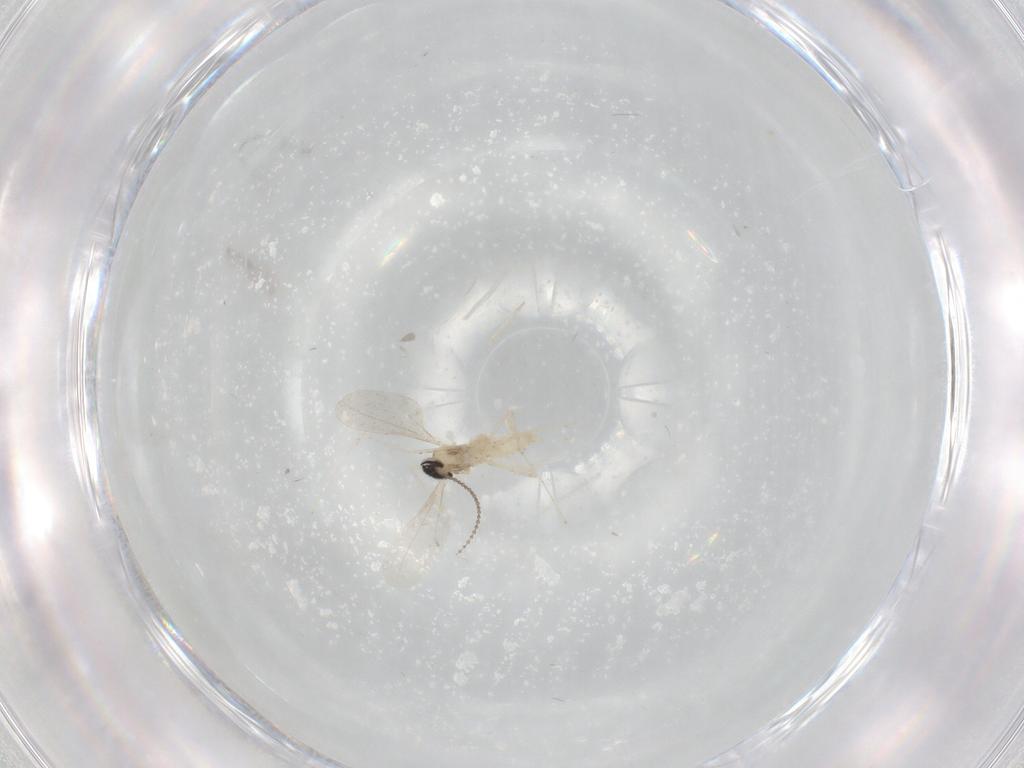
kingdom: Animalia
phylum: Arthropoda
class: Insecta
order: Diptera
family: Cecidomyiidae
